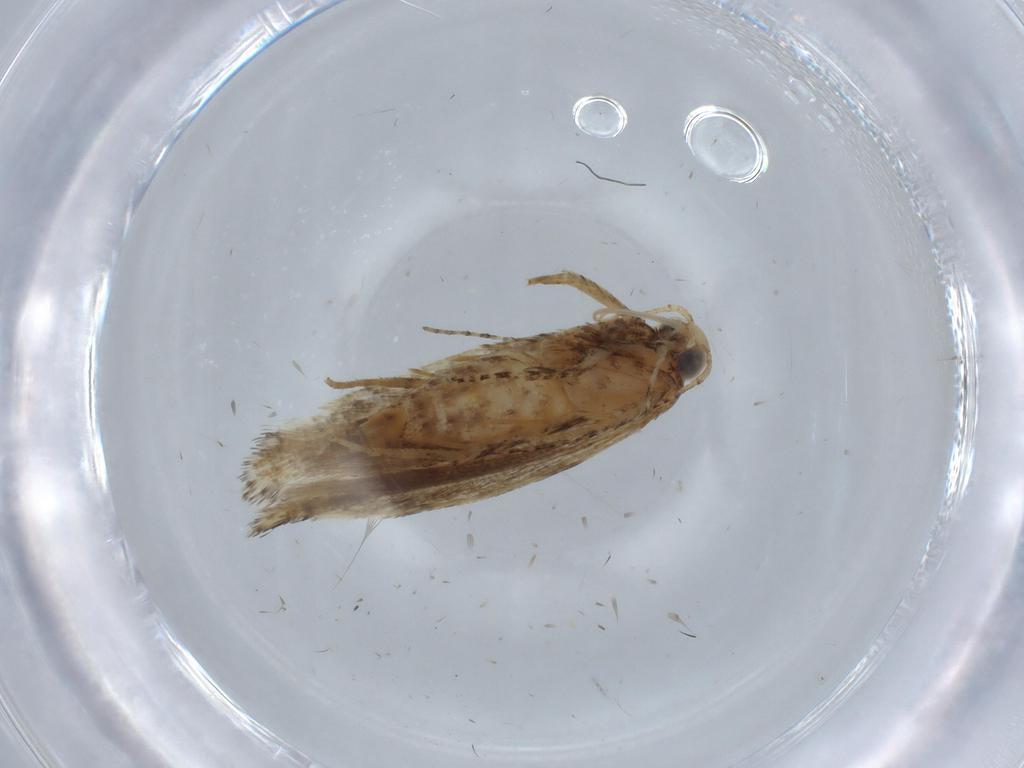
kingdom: Animalia
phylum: Arthropoda
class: Insecta
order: Lepidoptera
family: Gelechiidae
